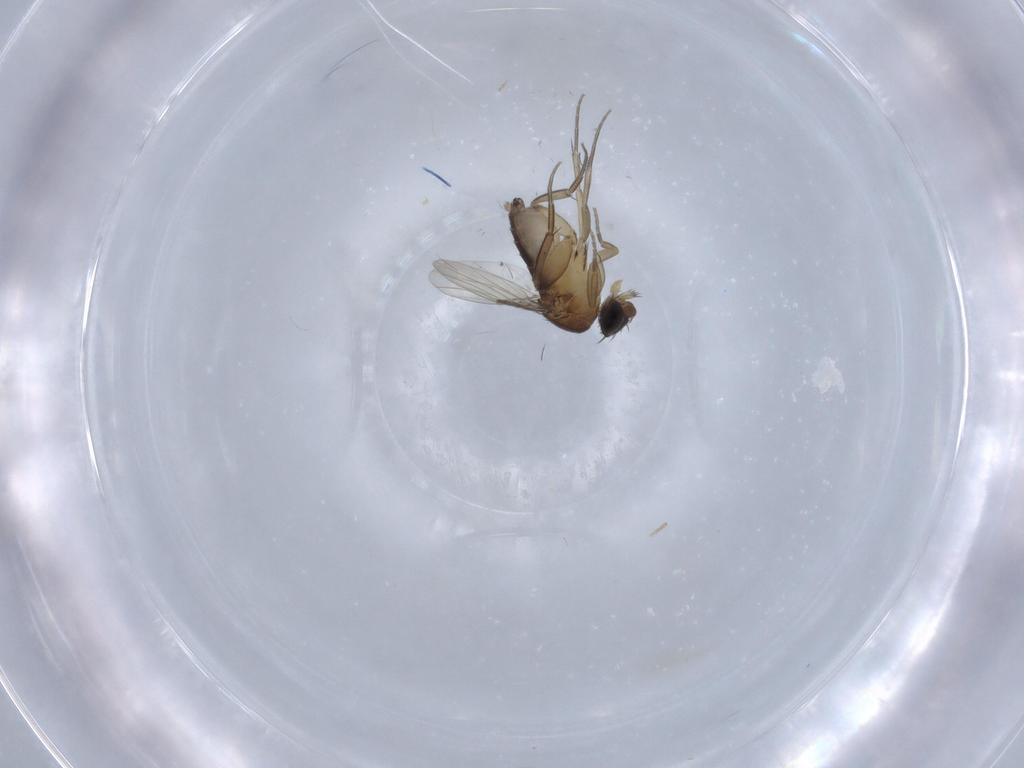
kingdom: Animalia
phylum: Arthropoda
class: Insecta
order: Diptera
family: Phoridae
